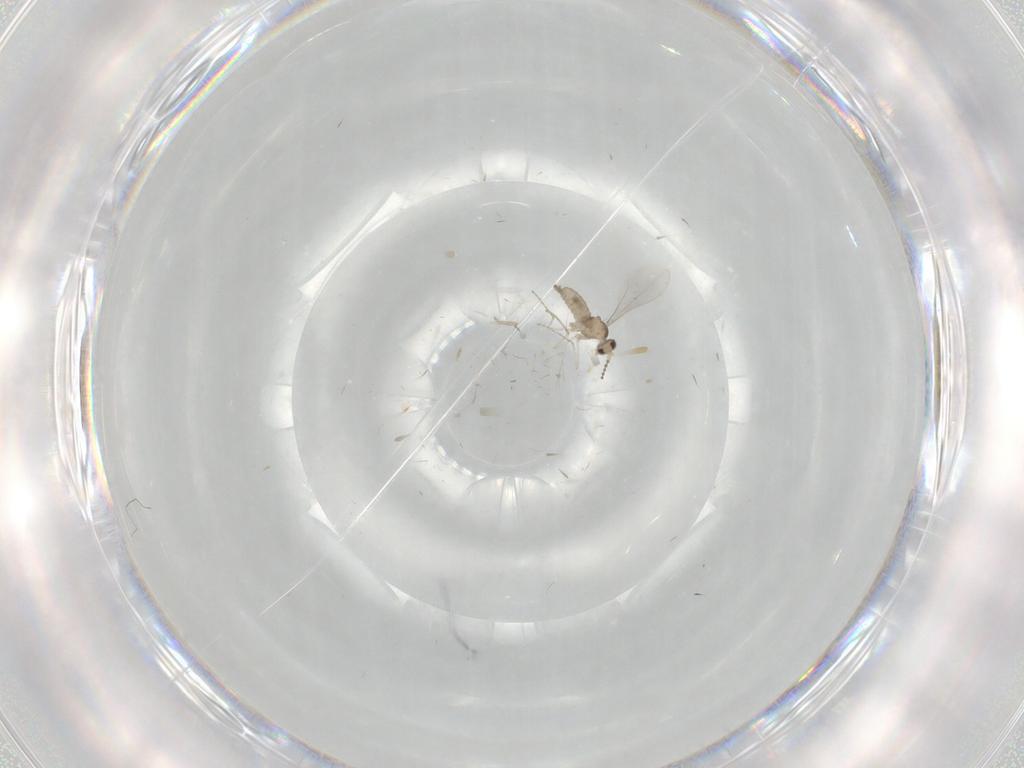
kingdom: Animalia
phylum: Arthropoda
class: Insecta
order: Diptera
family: Cecidomyiidae
